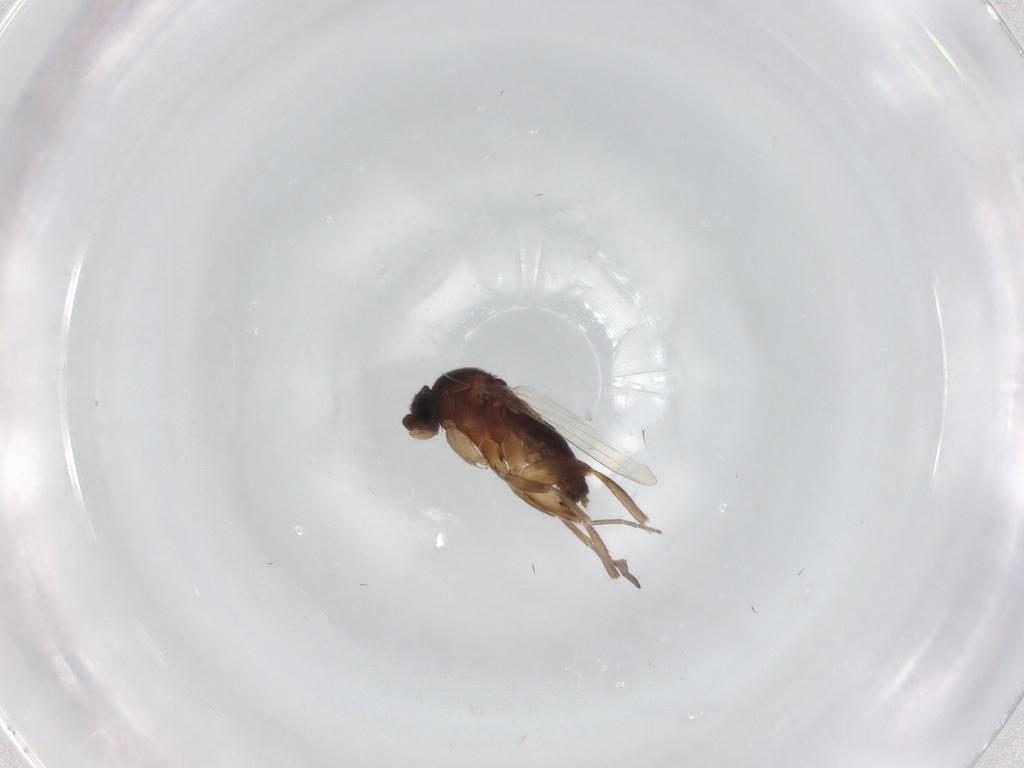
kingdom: Animalia
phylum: Arthropoda
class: Insecta
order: Diptera
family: Phoridae
